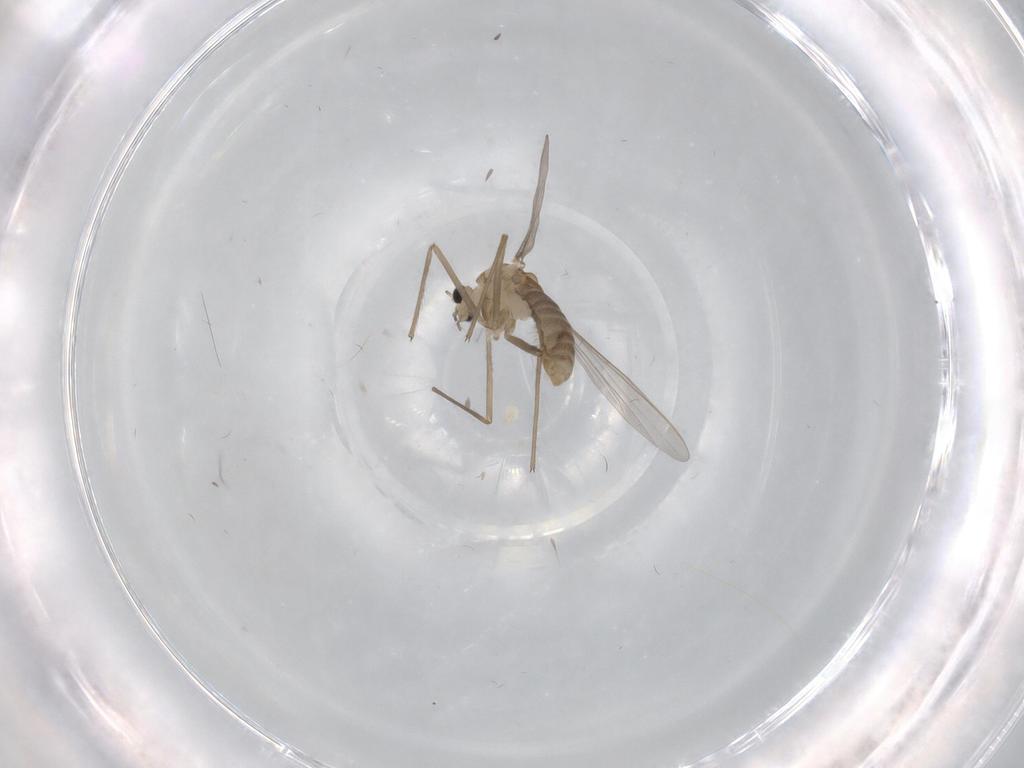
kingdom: Animalia
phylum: Arthropoda
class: Insecta
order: Diptera
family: Chironomidae
